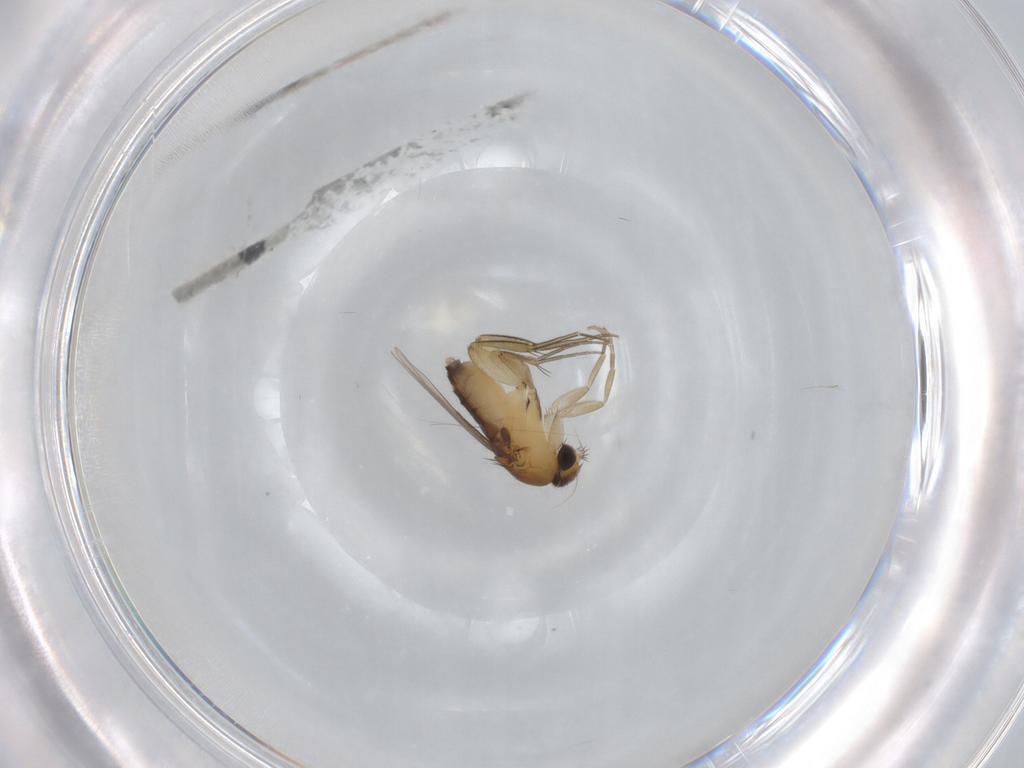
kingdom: Animalia
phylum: Arthropoda
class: Insecta
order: Diptera
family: Phoridae
